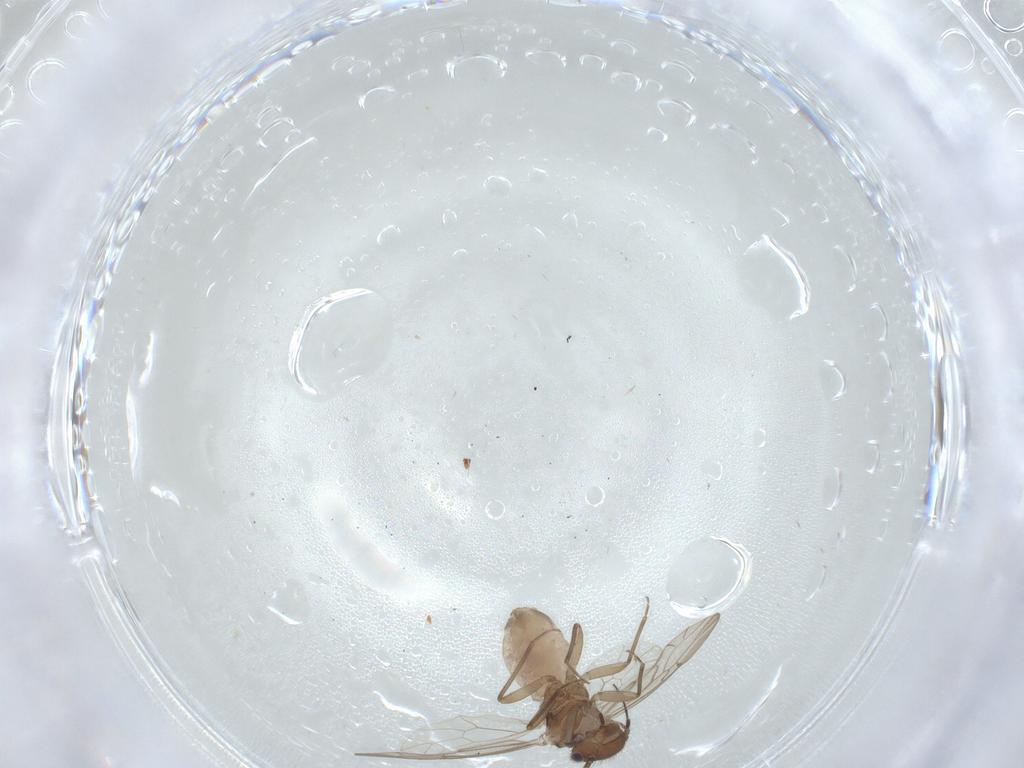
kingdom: Animalia
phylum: Arthropoda
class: Insecta
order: Psocodea
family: Ectopsocidae
